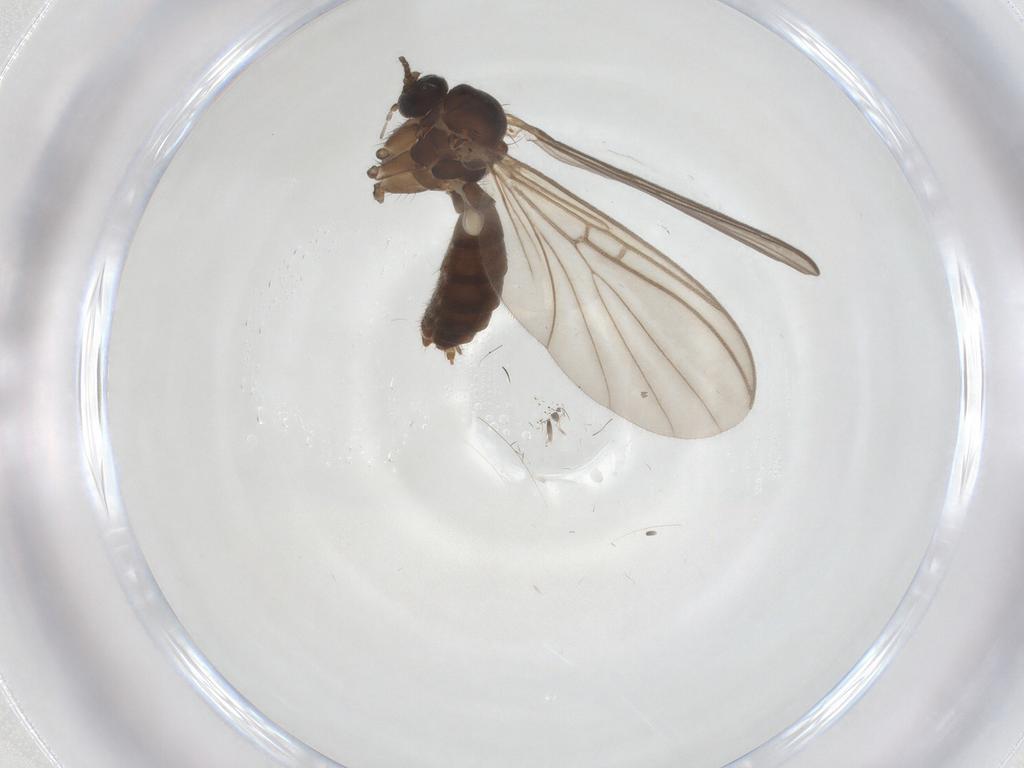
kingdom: Animalia
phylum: Arthropoda
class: Insecta
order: Diptera
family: Mycetophilidae
